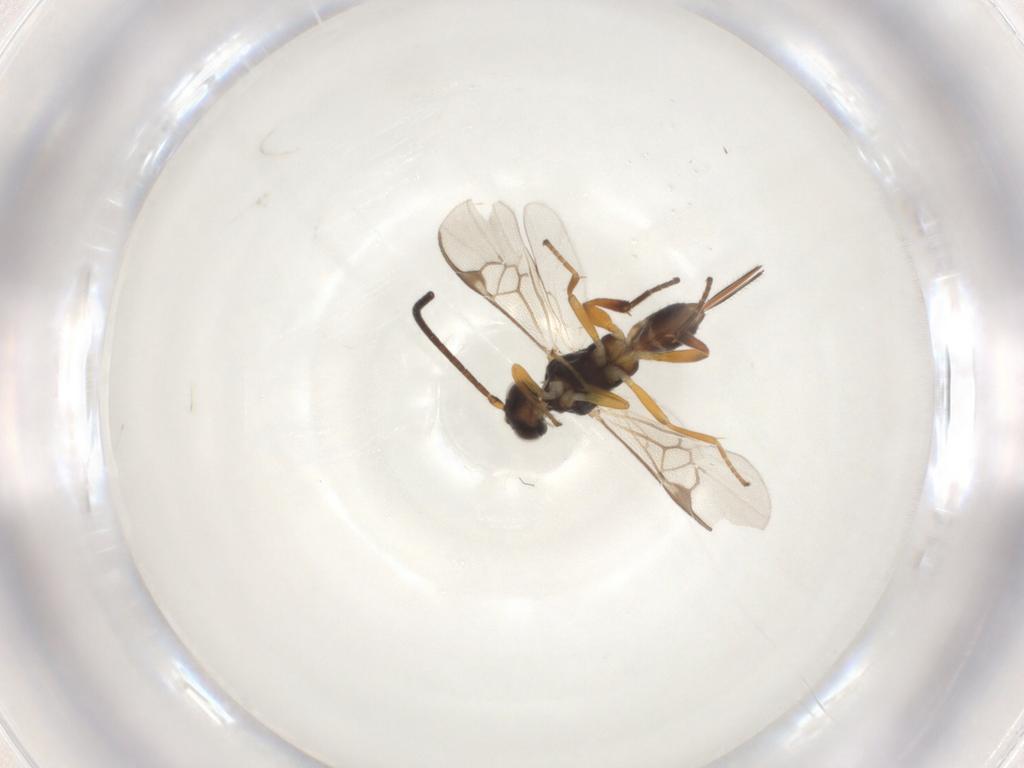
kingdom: Animalia
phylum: Arthropoda
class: Insecta
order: Hymenoptera
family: Braconidae
